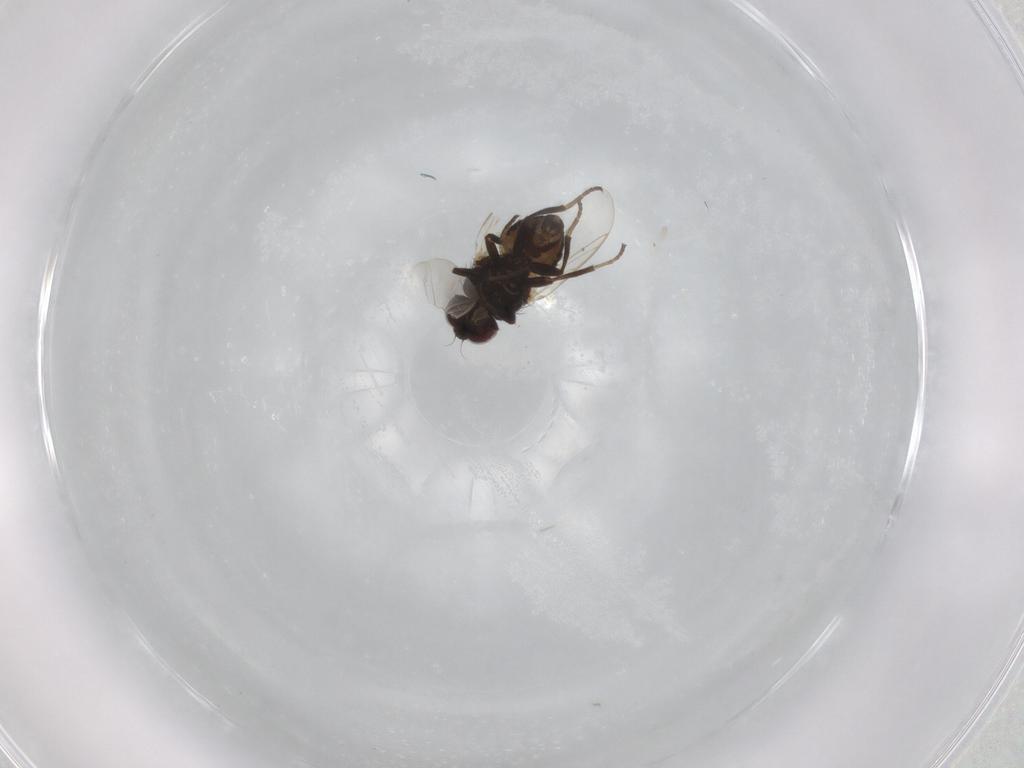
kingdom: Animalia
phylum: Arthropoda
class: Insecta
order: Diptera
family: Agromyzidae
